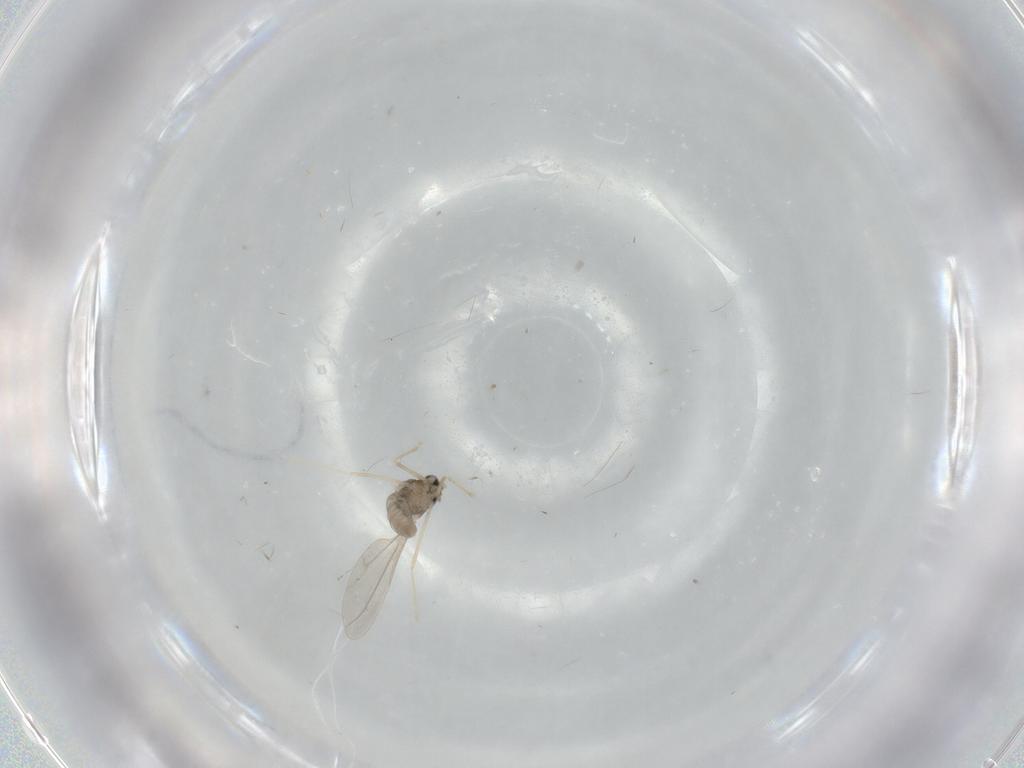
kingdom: Animalia
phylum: Arthropoda
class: Insecta
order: Diptera
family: Cecidomyiidae
